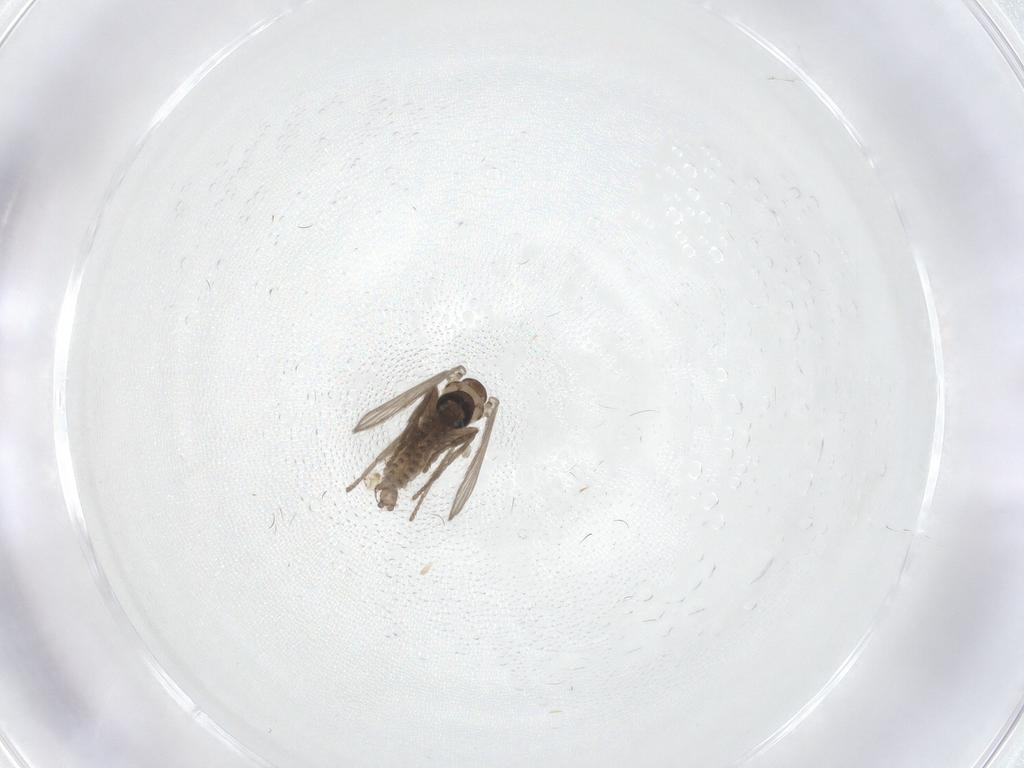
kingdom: Animalia
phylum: Arthropoda
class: Insecta
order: Diptera
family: Psychodidae
